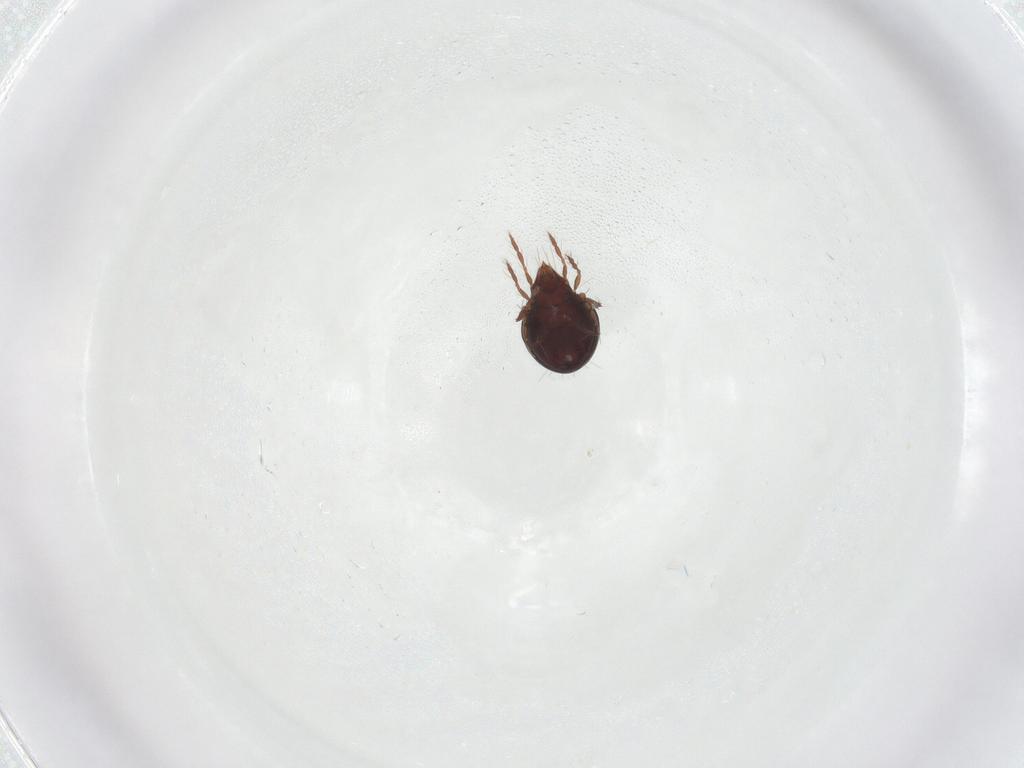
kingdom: Animalia
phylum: Arthropoda
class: Arachnida
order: Sarcoptiformes
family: Ceratoppiidae
